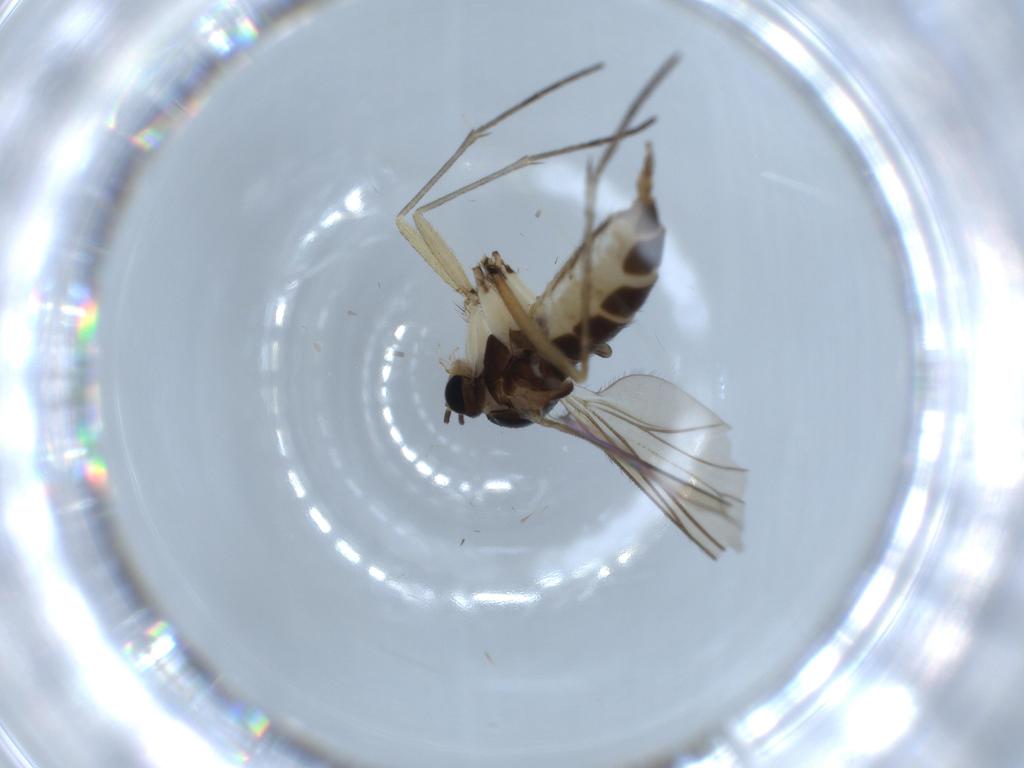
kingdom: Animalia
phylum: Arthropoda
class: Insecta
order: Diptera
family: Sciaridae
